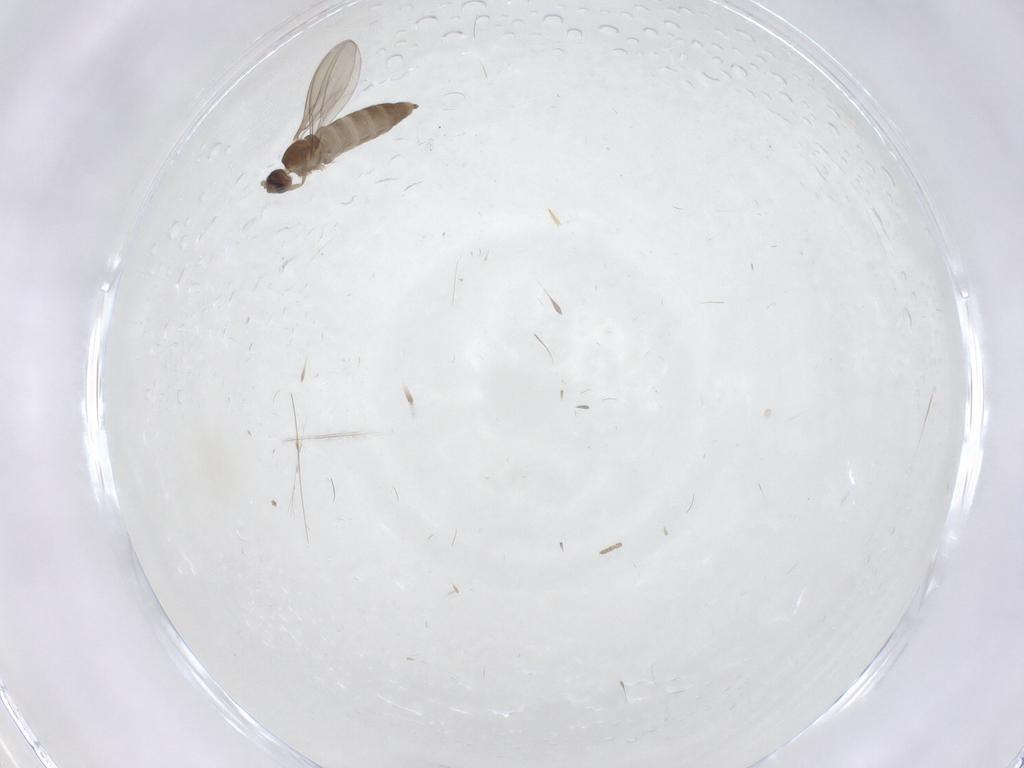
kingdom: Animalia
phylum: Arthropoda
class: Insecta
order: Diptera
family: Cecidomyiidae
